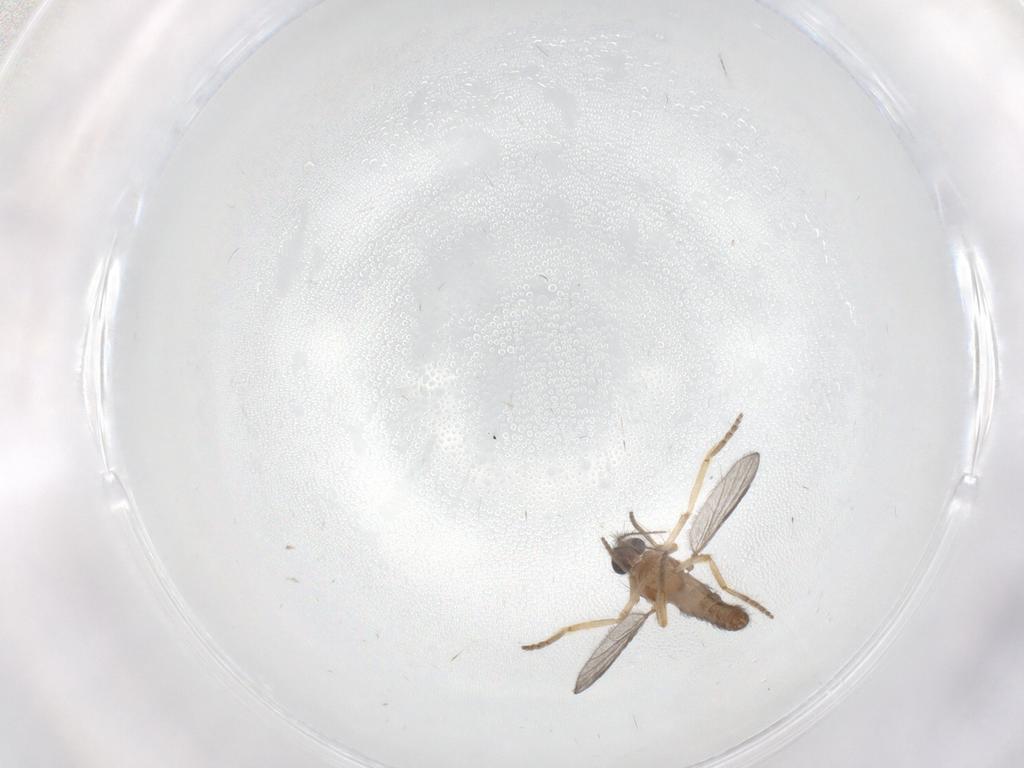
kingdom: Animalia
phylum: Arthropoda
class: Insecta
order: Diptera
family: Mycetophilidae
